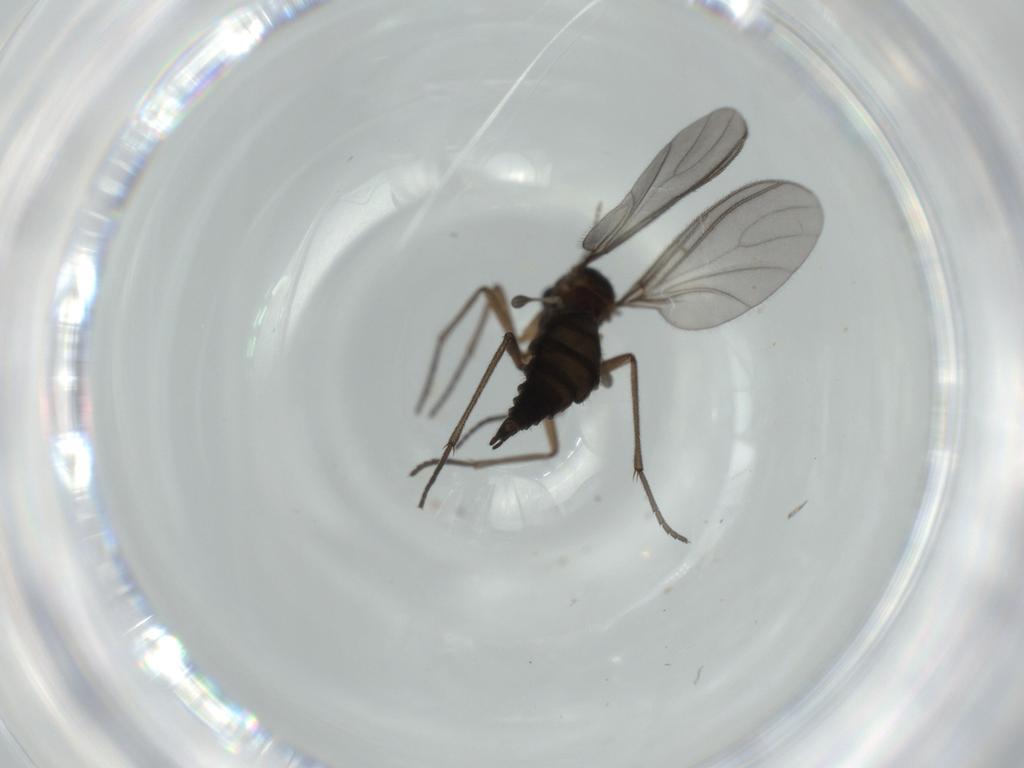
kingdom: Animalia
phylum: Arthropoda
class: Insecta
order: Diptera
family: Sciaridae
